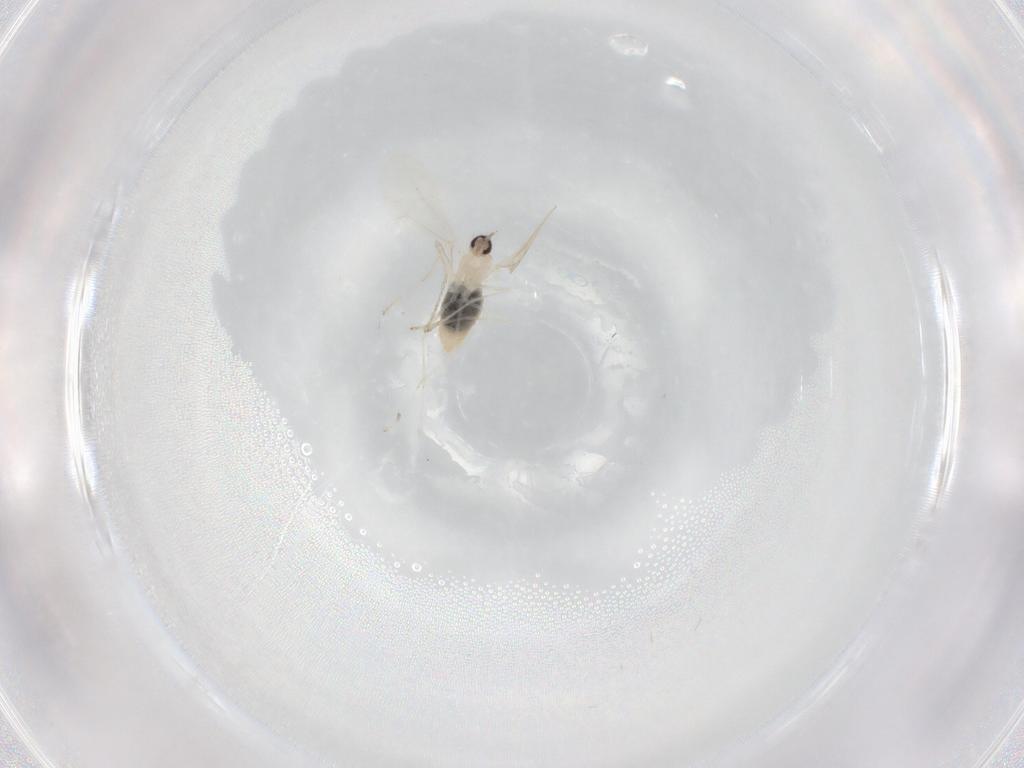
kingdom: Animalia
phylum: Arthropoda
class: Insecta
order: Diptera
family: Cecidomyiidae
